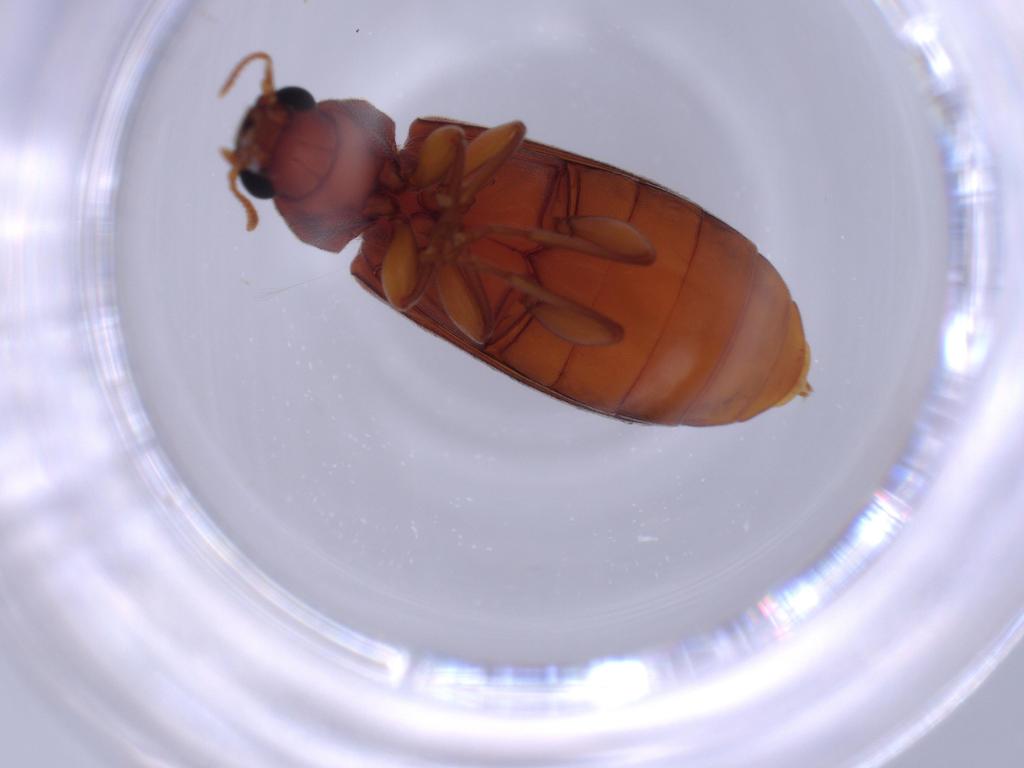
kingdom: Animalia
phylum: Arthropoda
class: Insecta
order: Coleoptera
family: Mycteridae
